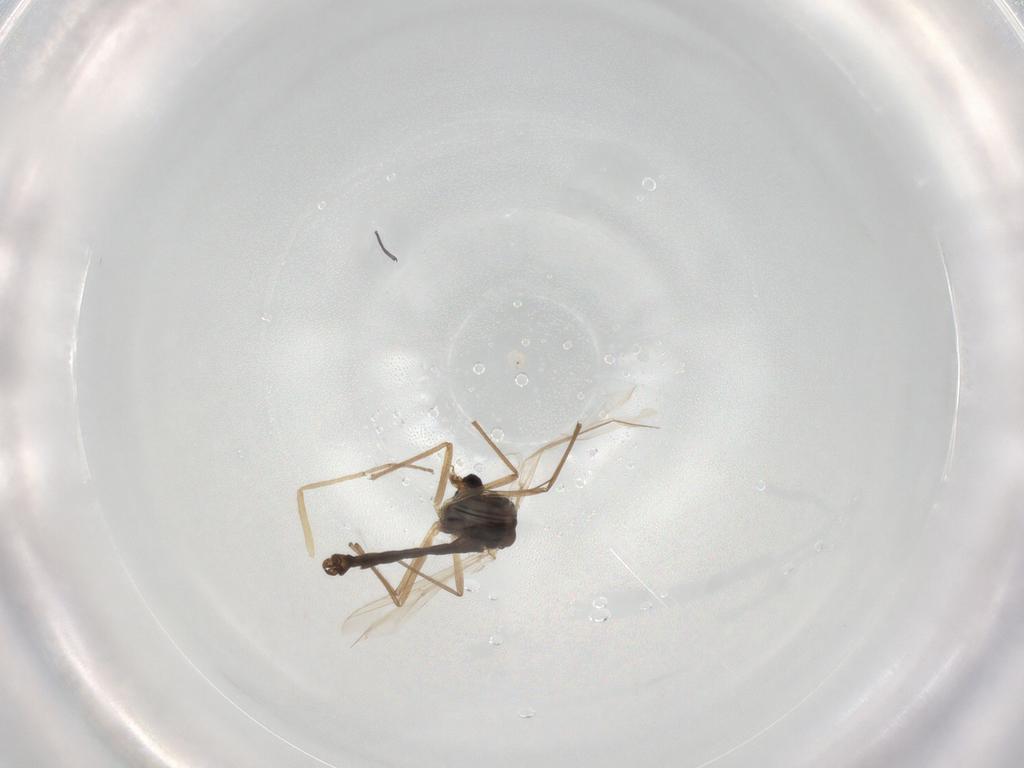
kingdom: Animalia
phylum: Arthropoda
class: Insecta
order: Diptera
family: Chironomidae
